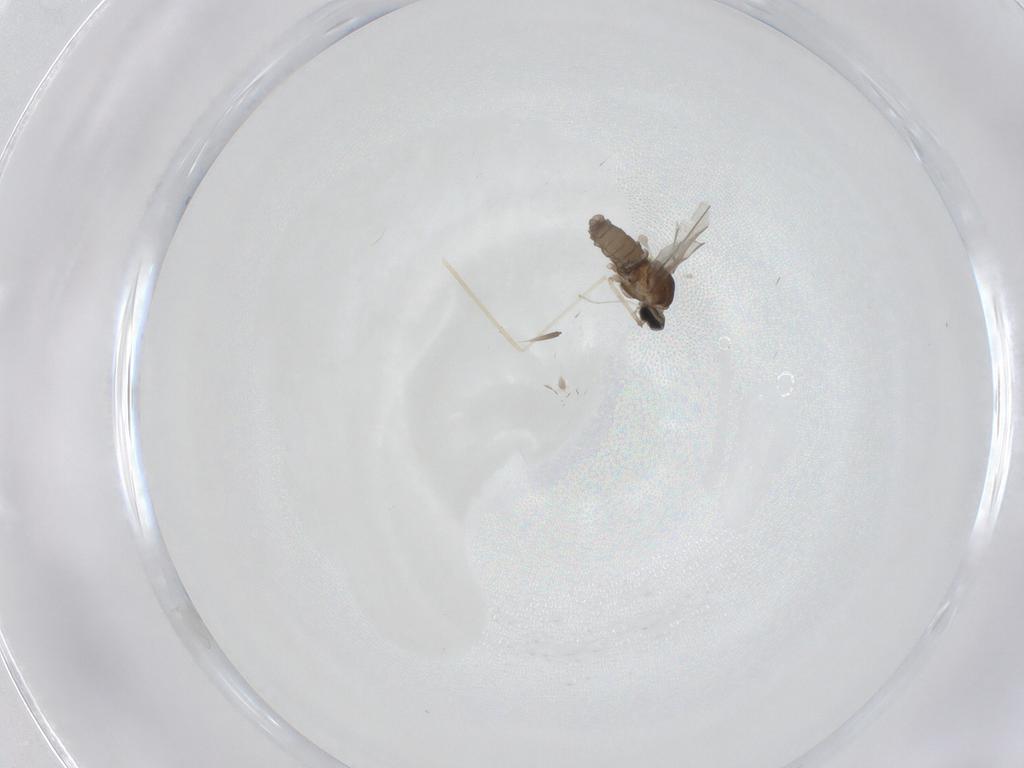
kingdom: Animalia
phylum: Arthropoda
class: Insecta
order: Diptera
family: Cecidomyiidae
